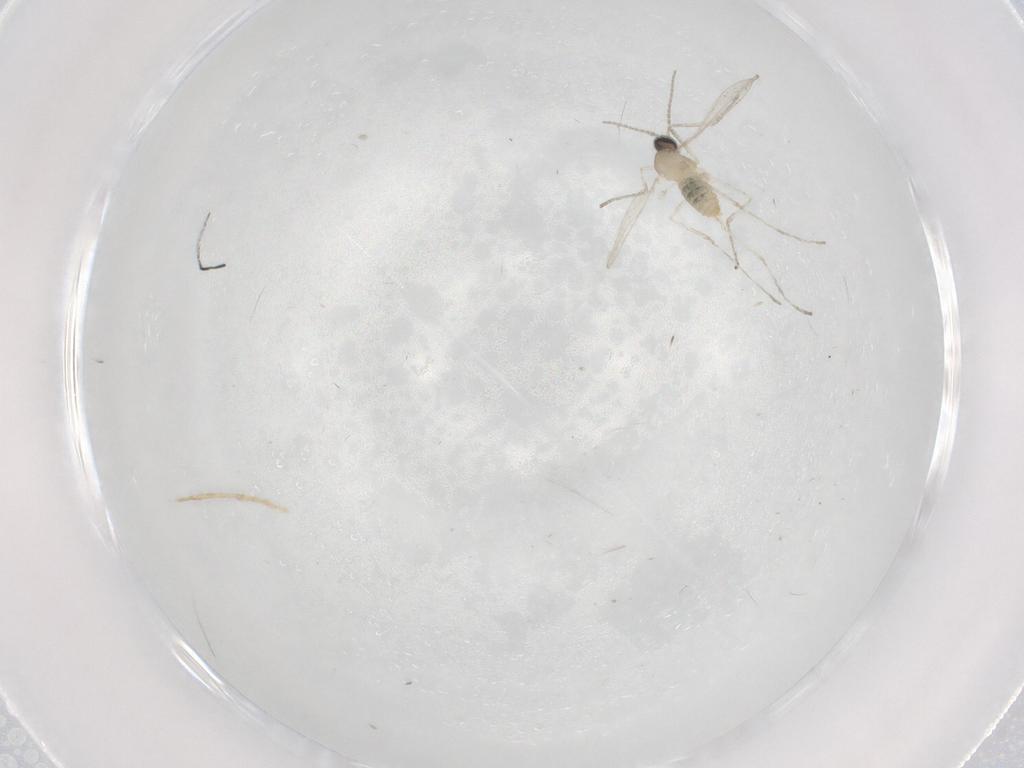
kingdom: Animalia
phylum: Arthropoda
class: Insecta
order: Diptera
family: Cecidomyiidae
